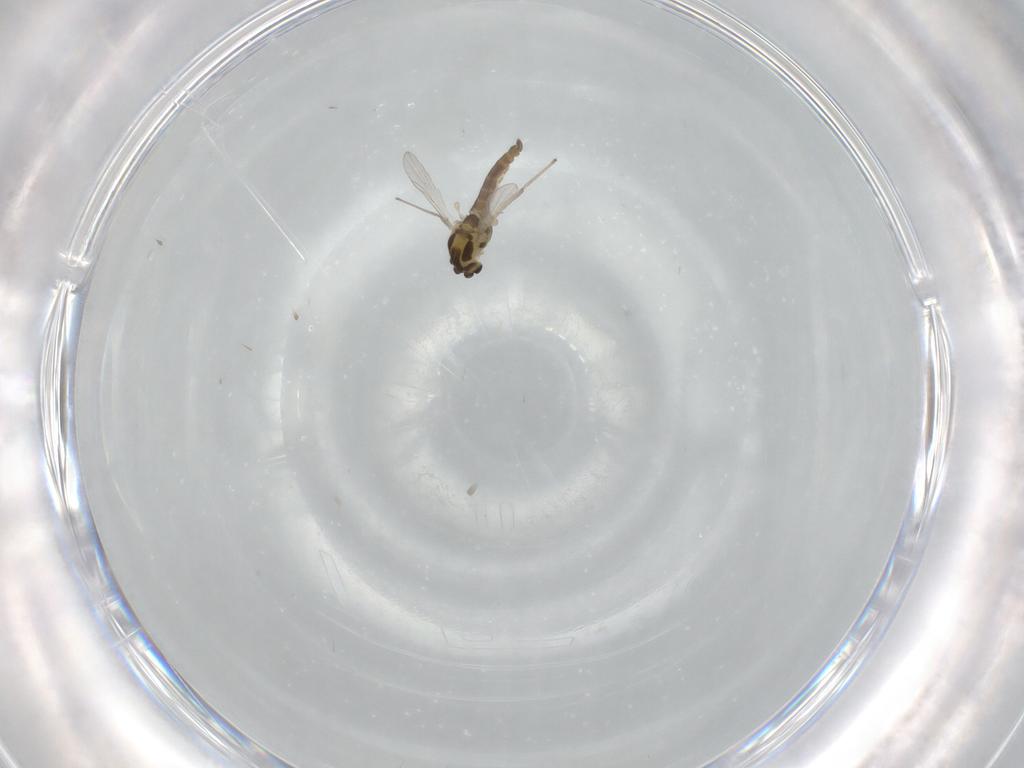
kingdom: Animalia
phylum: Arthropoda
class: Insecta
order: Diptera
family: Chironomidae
